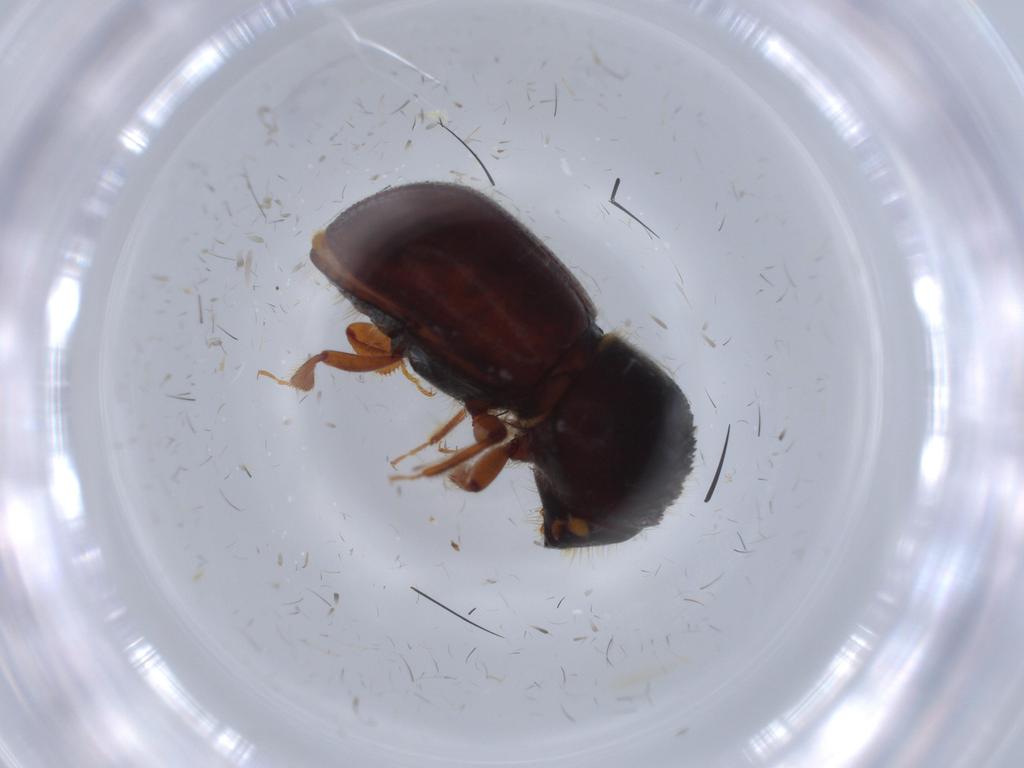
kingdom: Animalia
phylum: Arthropoda
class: Insecta
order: Coleoptera
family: Curculionidae
